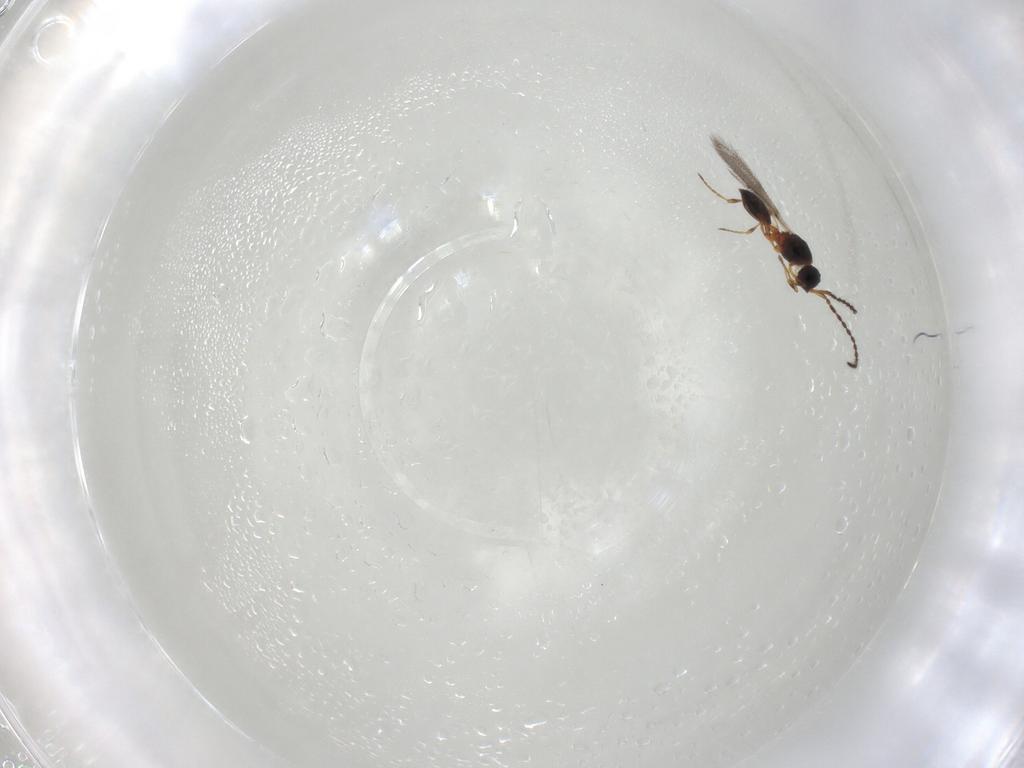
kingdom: Animalia
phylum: Arthropoda
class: Insecta
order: Hymenoptera
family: Diapriidae
